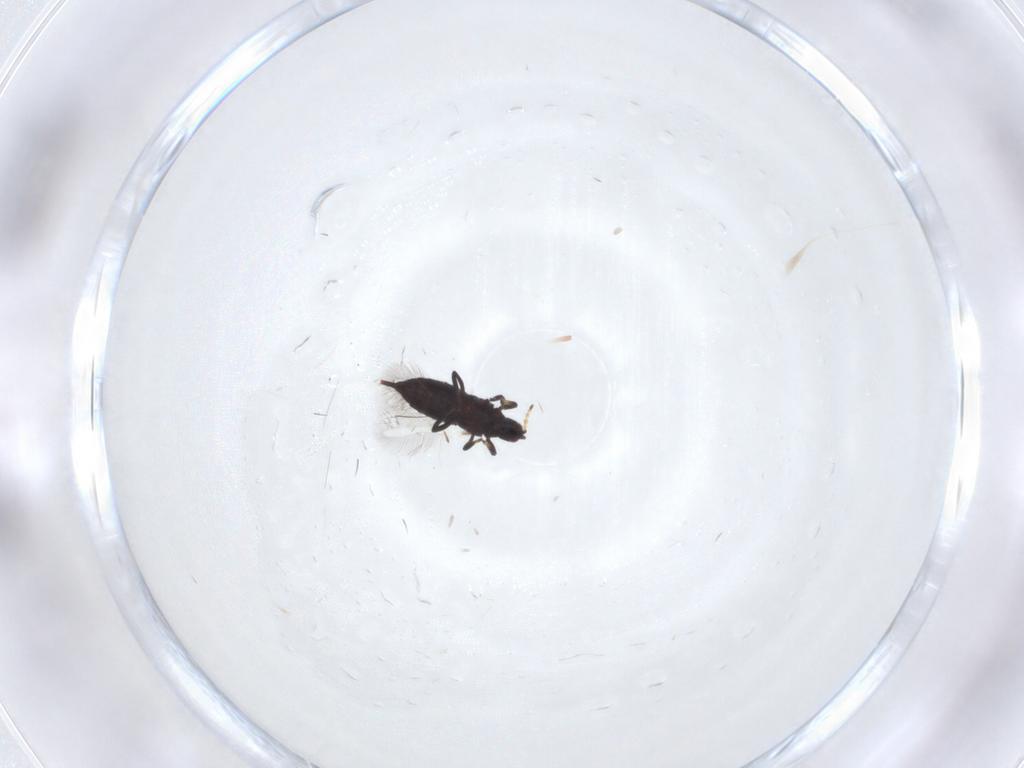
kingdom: Animalia
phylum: Arthropoda
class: Insecta
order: Thysanoptera
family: Phlaeothripidae
